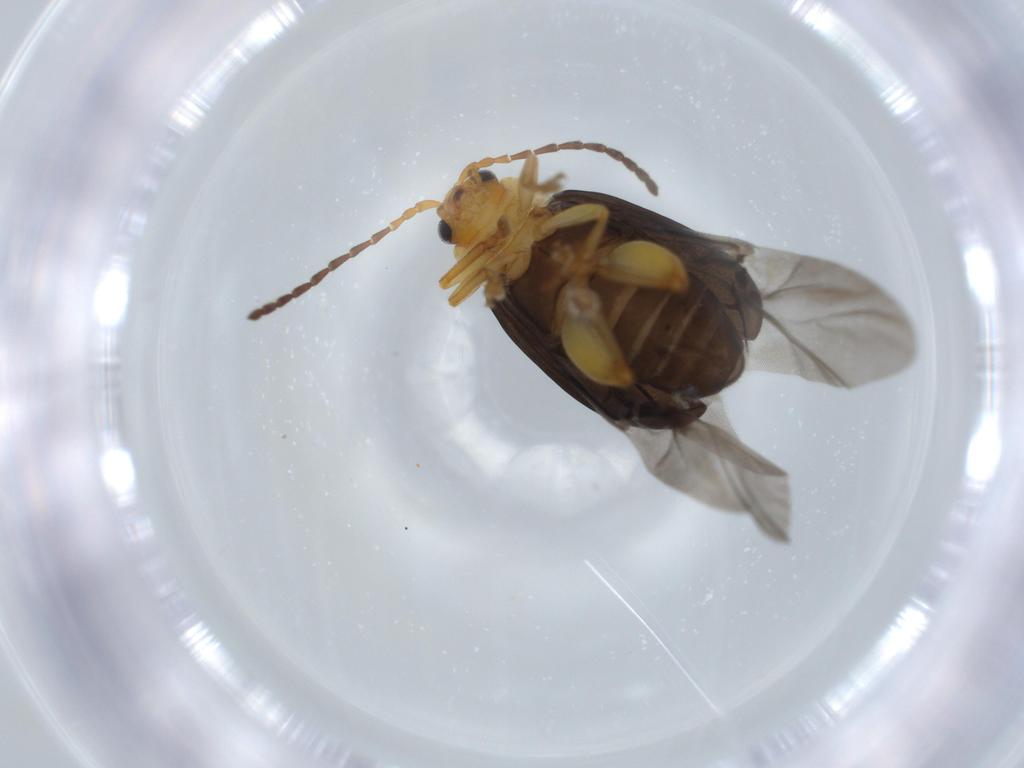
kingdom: Animalia
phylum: Arthropoda
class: Insecta
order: Coleoptera
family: Chrysomelidae
